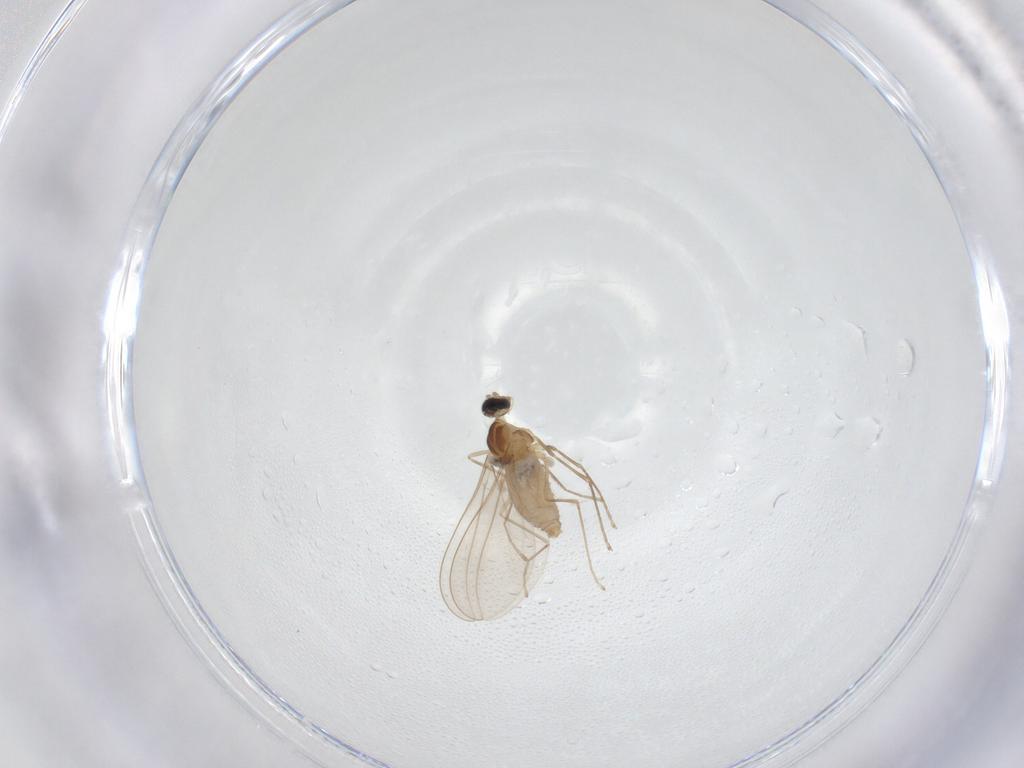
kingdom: Animalia
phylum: Arthropoda
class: Insecta
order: Diptera
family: Cecidomyiidae
